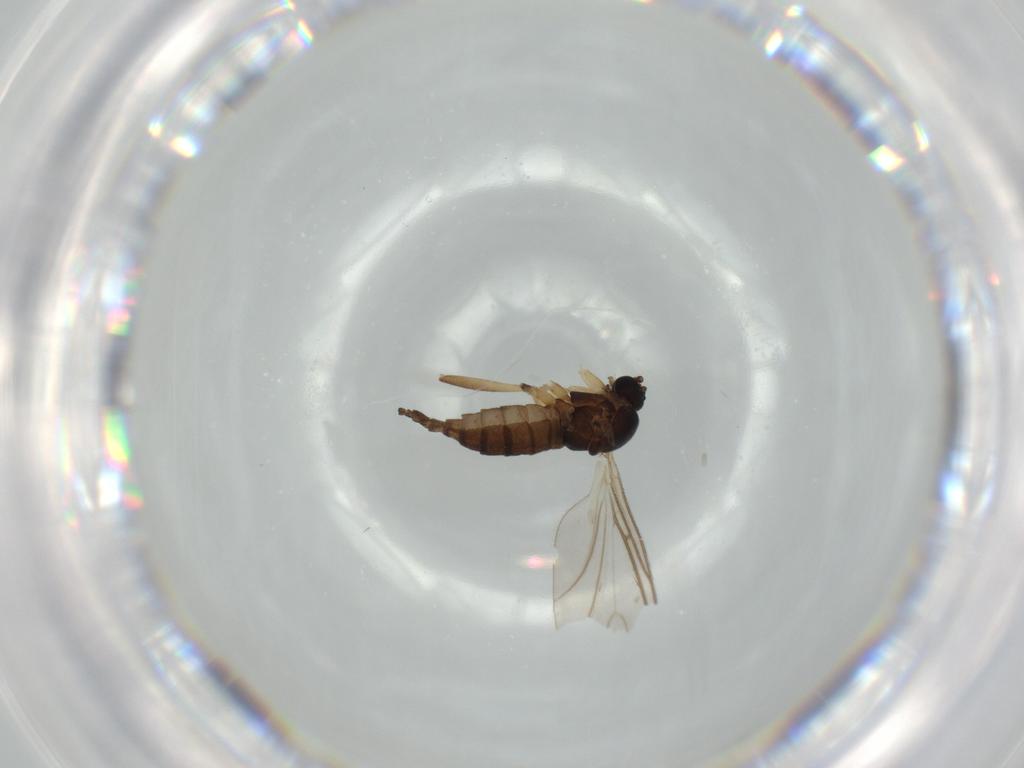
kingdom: Animalia
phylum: Arthropoda
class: Insecta
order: Diptera
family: Sciaridae
